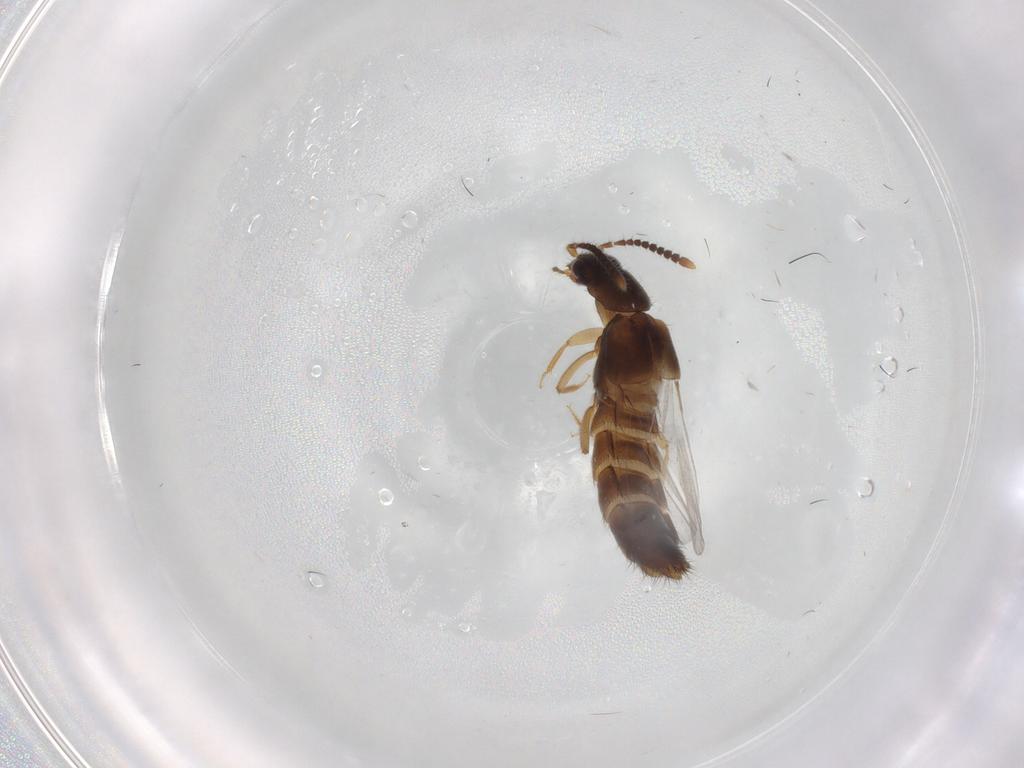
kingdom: Animalia
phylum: Arthropoda
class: Insecta
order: Coleoptera
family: Staphylinidae
